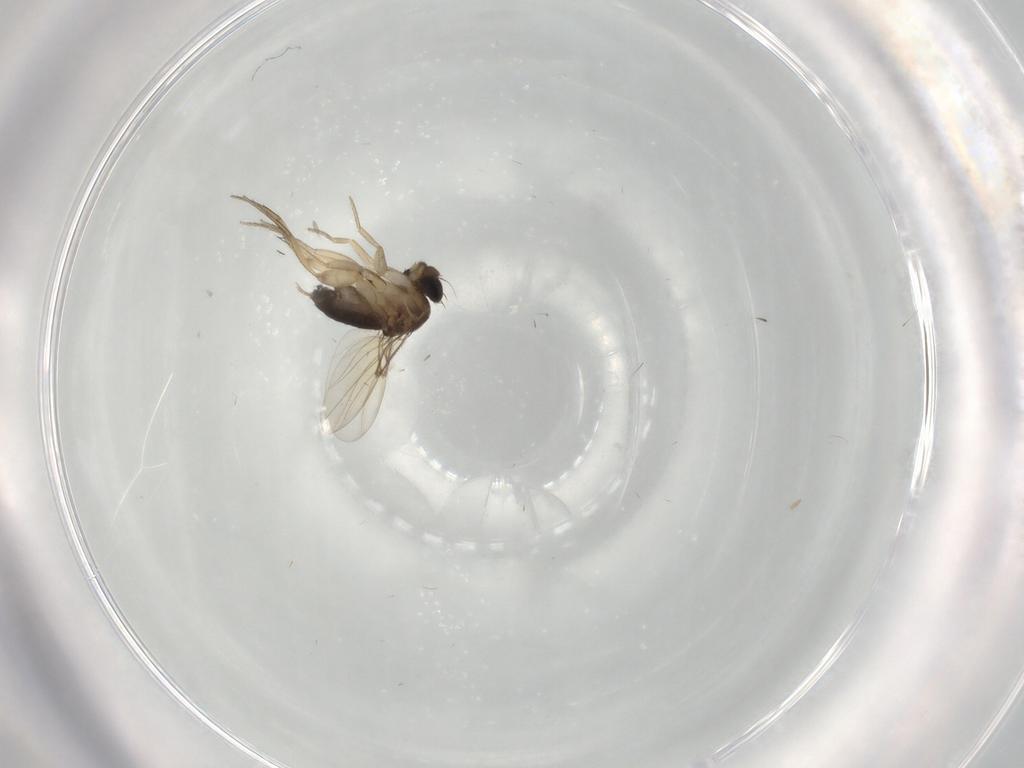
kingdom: Animalia
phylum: Arthropoda
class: Insecta
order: Diptera
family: Phoridae
